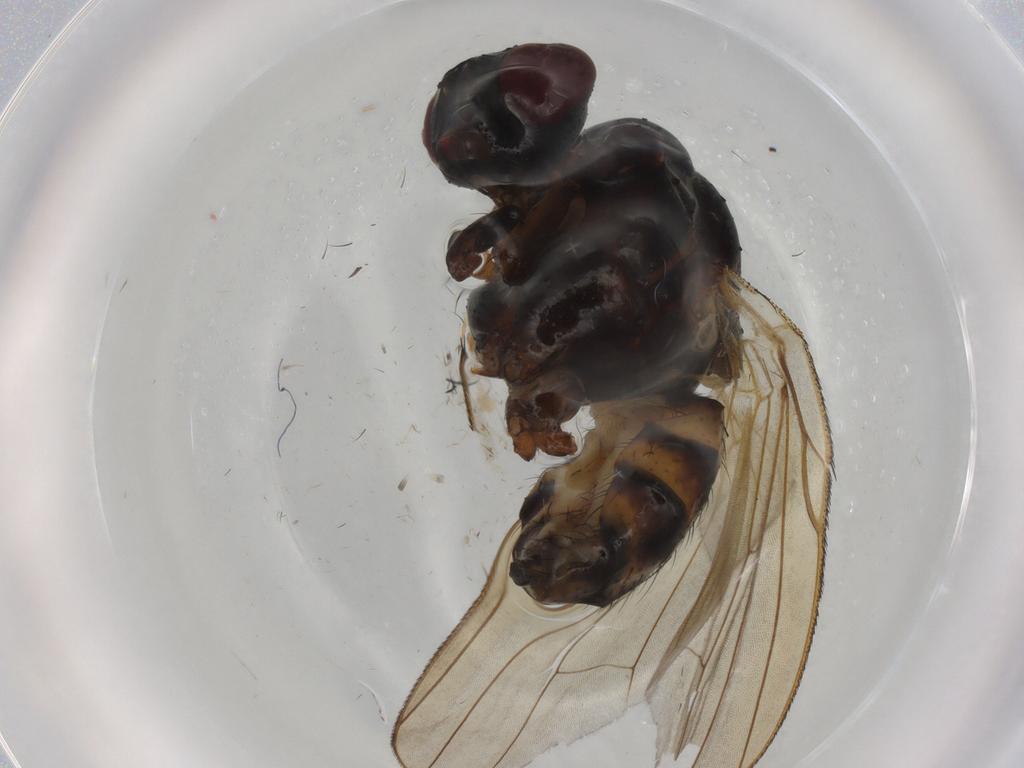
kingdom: Animalia
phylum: Arthropoda
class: Insecta
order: Diptera
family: Anthomyiidae
